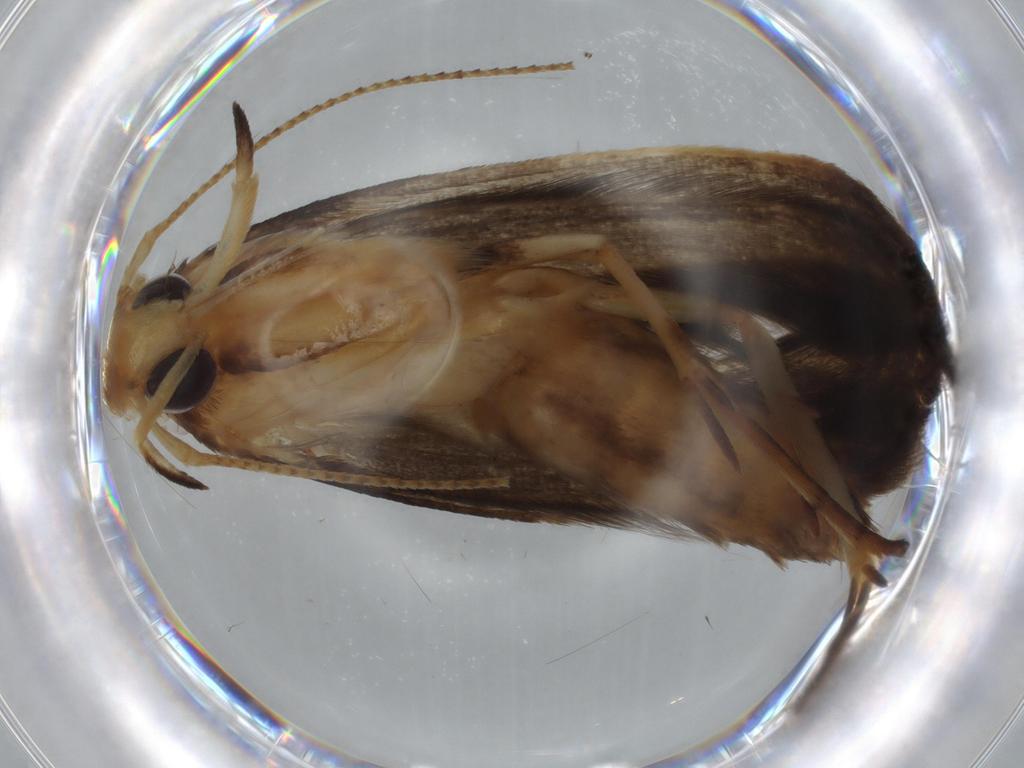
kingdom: Animalia
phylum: Arthropoda
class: Insecta
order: Lepidoptera
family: Coleophoridae
